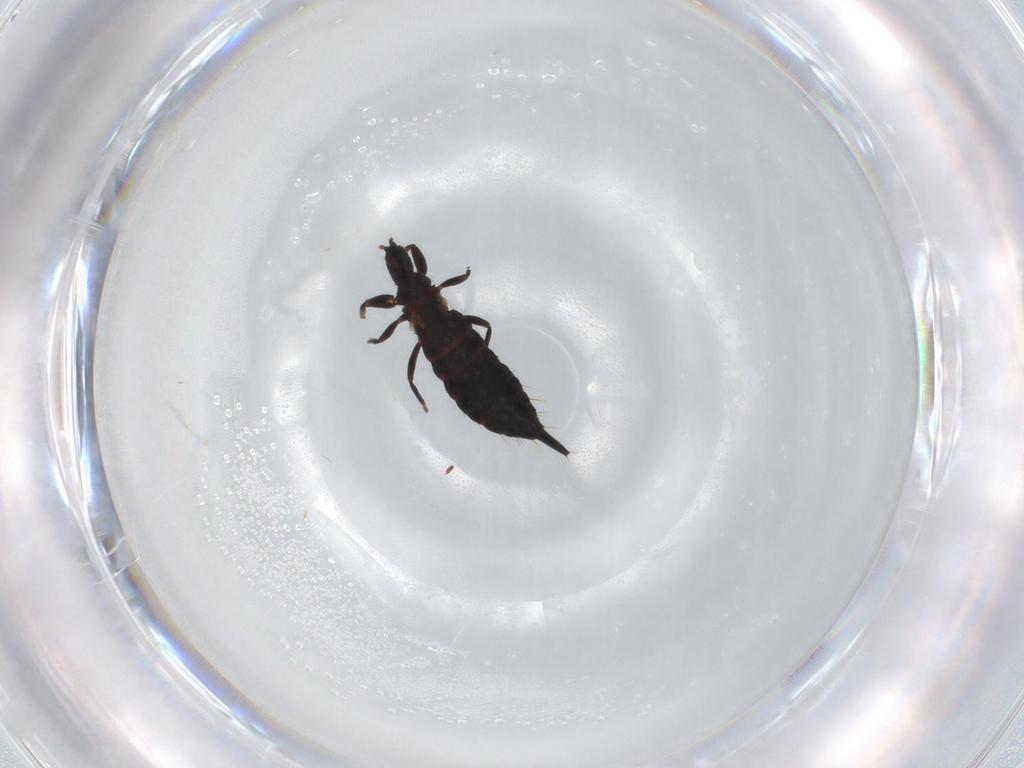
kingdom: Animalia
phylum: Arthropoda
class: Insecta
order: Thysanoptera
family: Phlaeothripidae
